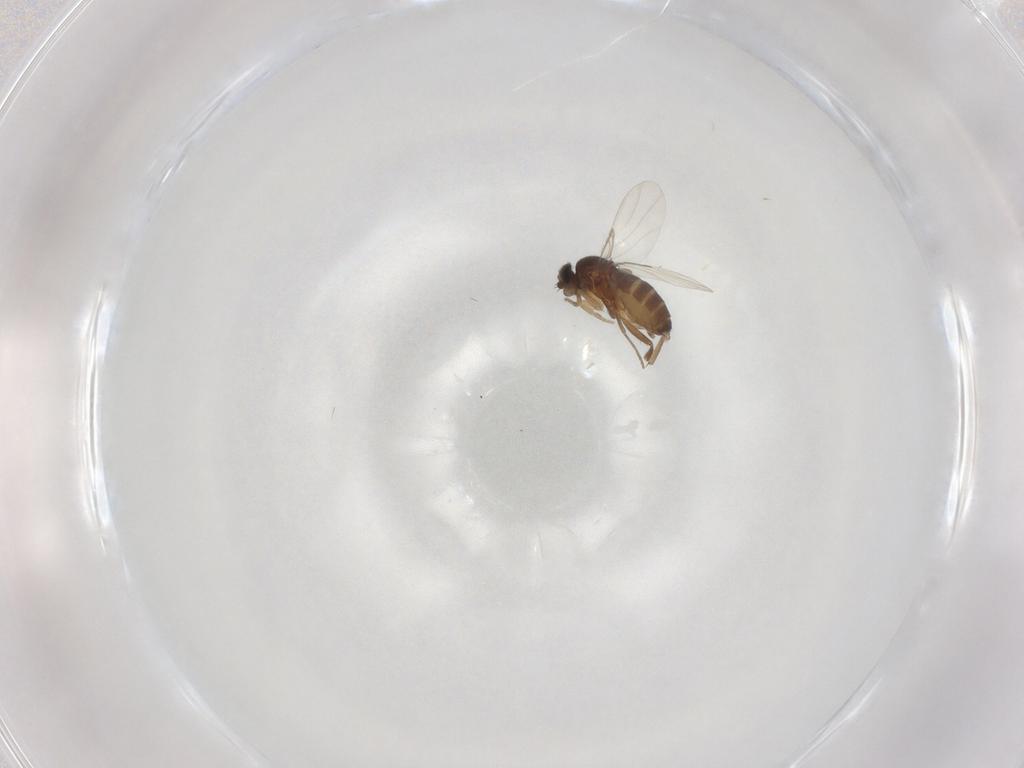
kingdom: Animalia
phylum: Arthropoda
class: Insecta
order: Diptera
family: Phoridae
